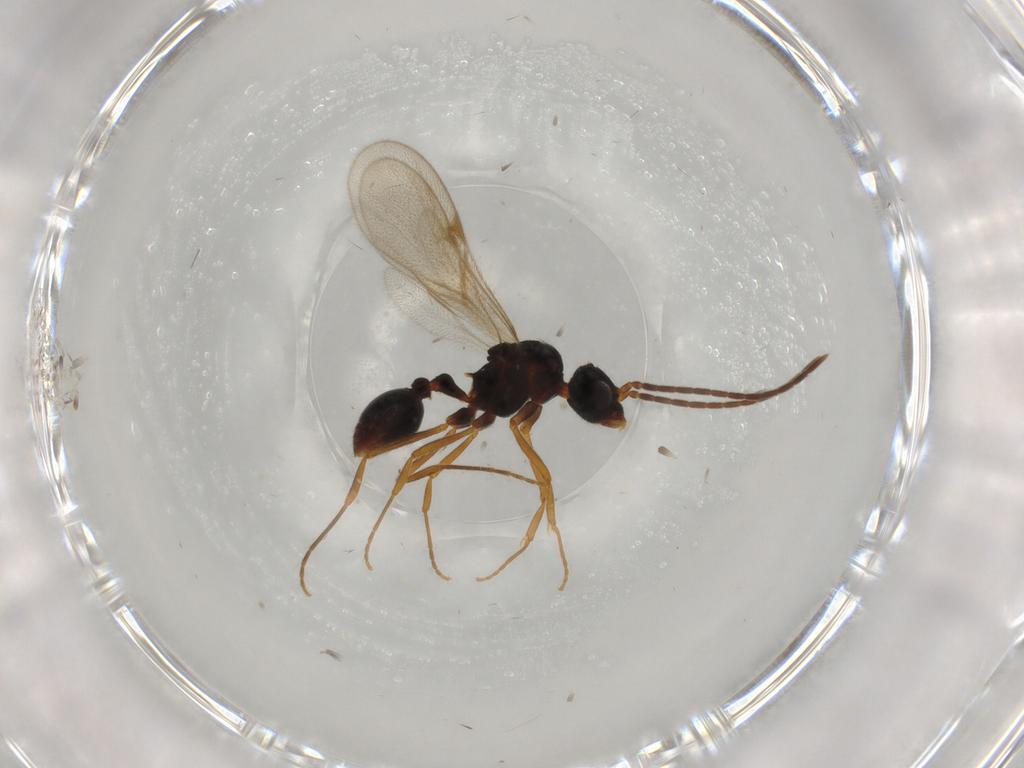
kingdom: Animalia
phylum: Arthropoda
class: Insecta
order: Hymenoptera
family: Formicidae
